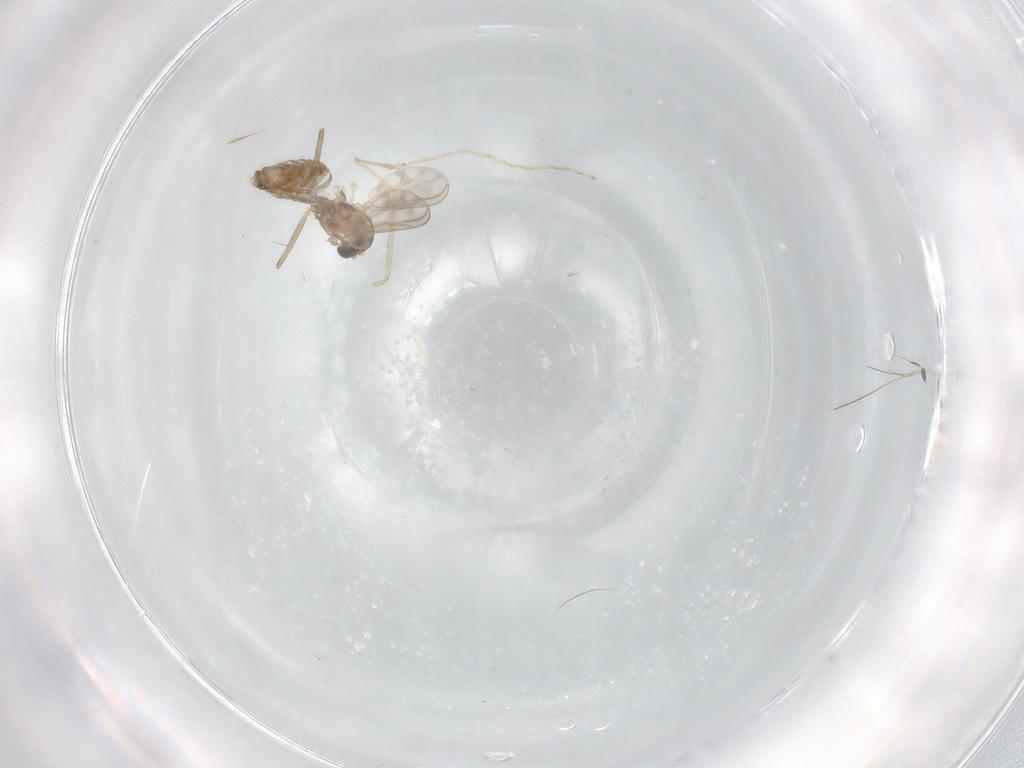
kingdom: Animalia
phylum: Arthropoda
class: Insecta
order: Diptera
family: Chironomidae
